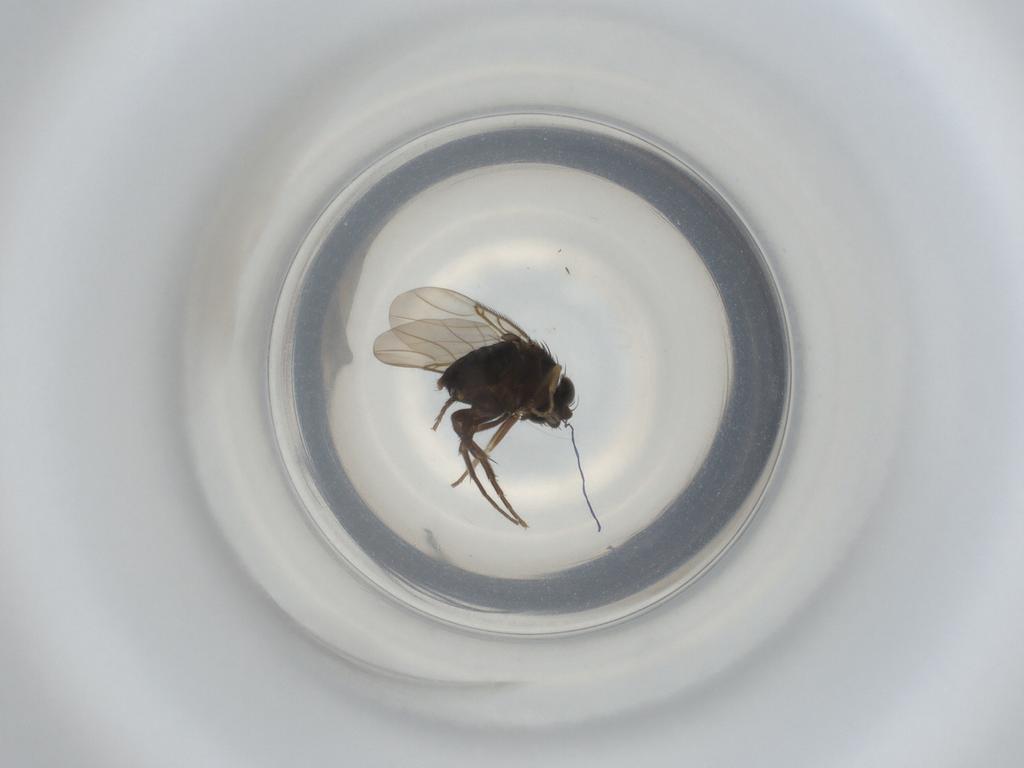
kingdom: Animalia
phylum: Arthropoda
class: Insecta
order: Diptera
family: Phoridae
